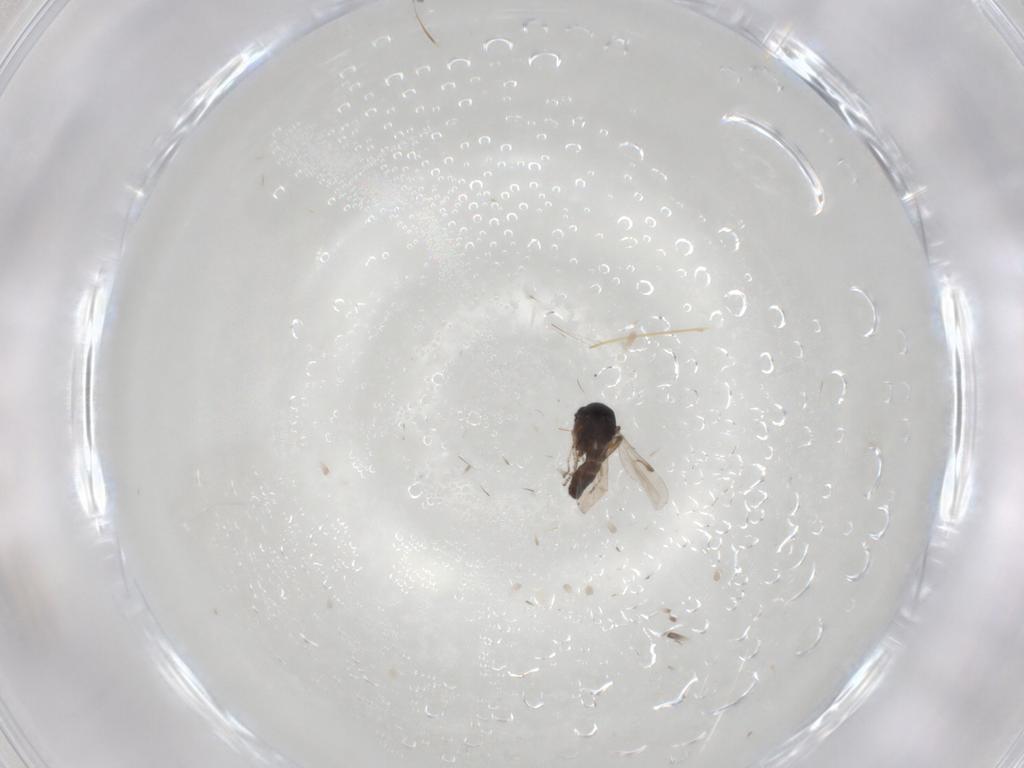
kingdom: Animalia
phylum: Arthropoda
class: Insecta
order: Diptera
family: Ceratopogonidae
